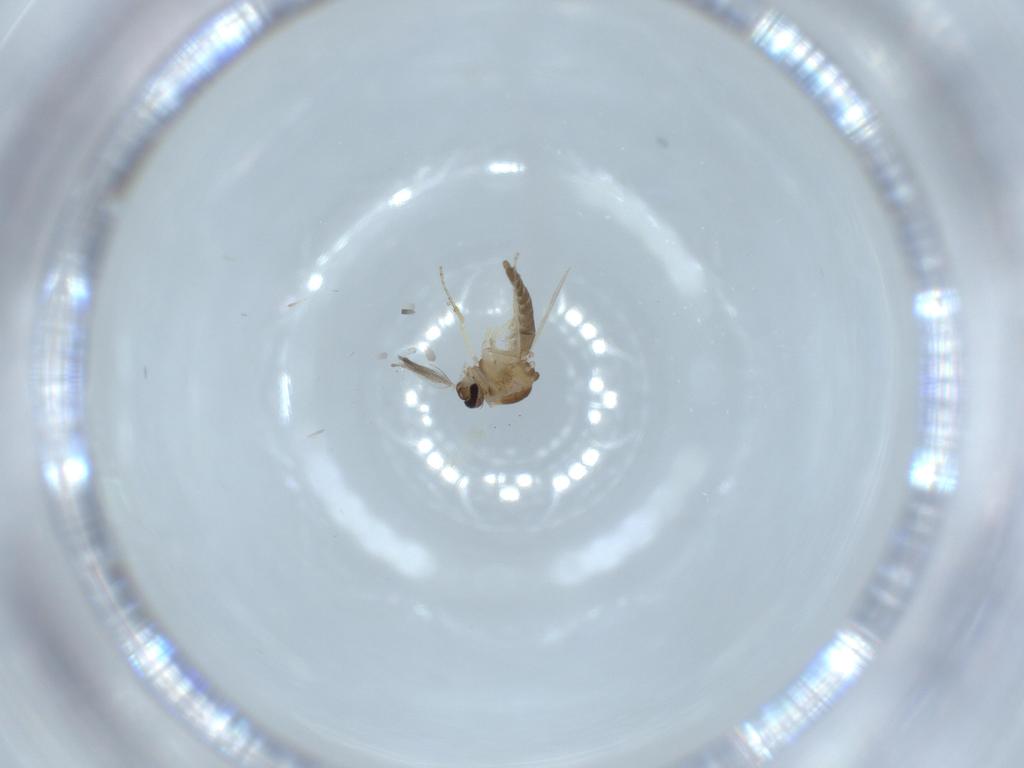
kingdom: Animalia
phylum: Arthropoda
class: Insecta
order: Diptera
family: Ceratopogonidae
